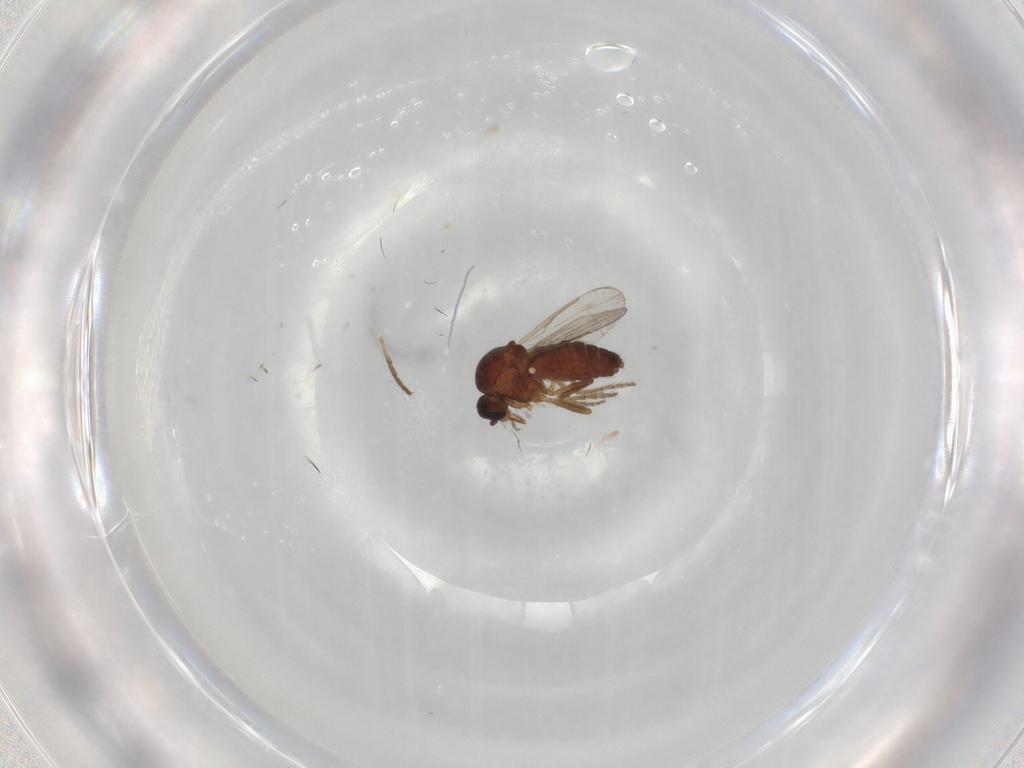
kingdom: Animalia
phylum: Arthropoda
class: Insecta
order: Diptera
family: Ceratopogonidae
